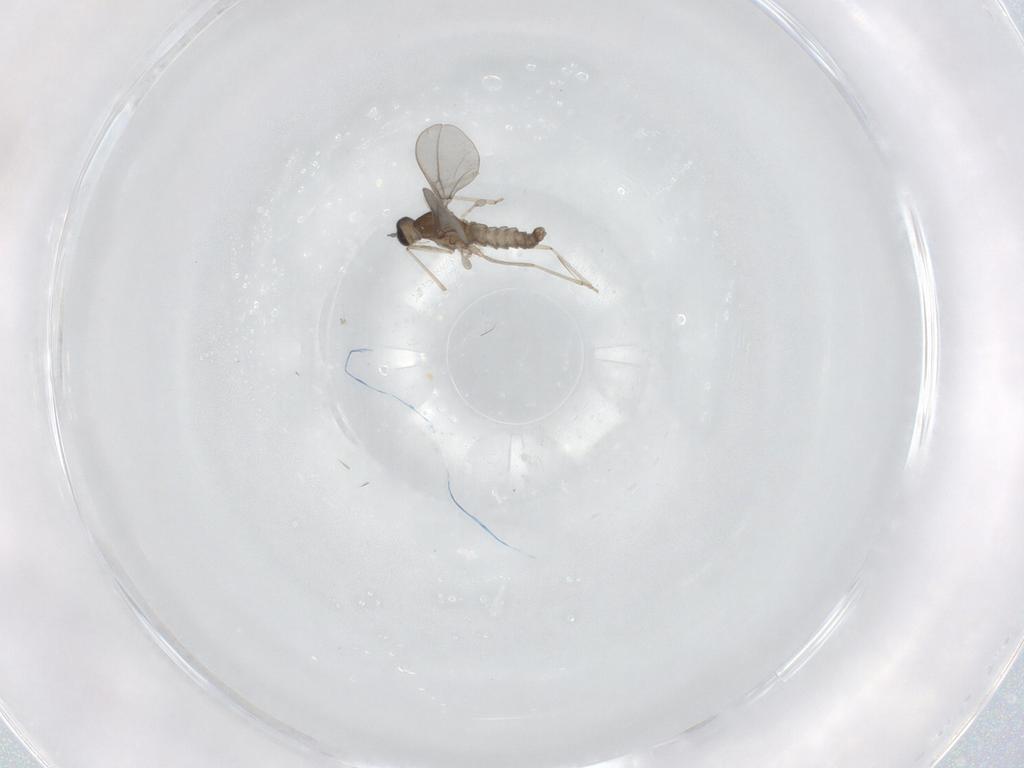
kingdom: Animalia
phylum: Arthropoda
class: Insecta
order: Diptera
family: Cecidomyiidae
